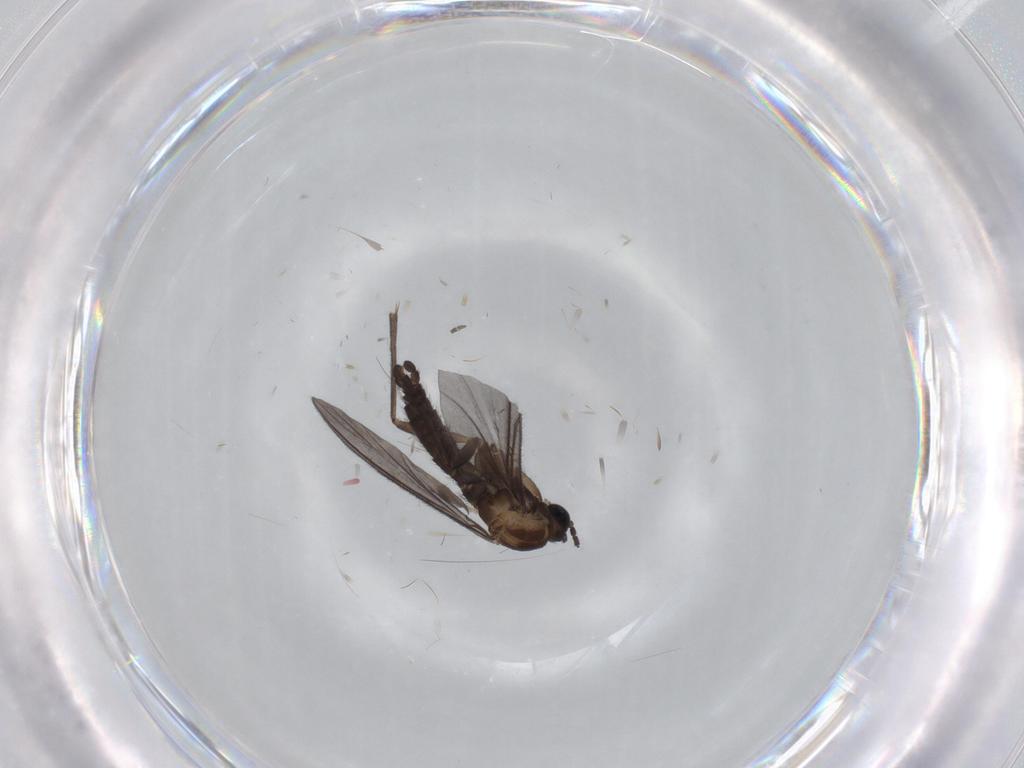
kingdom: Animalia
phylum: Arthropoda
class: Insecta
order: Diptera
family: Sciaridae
